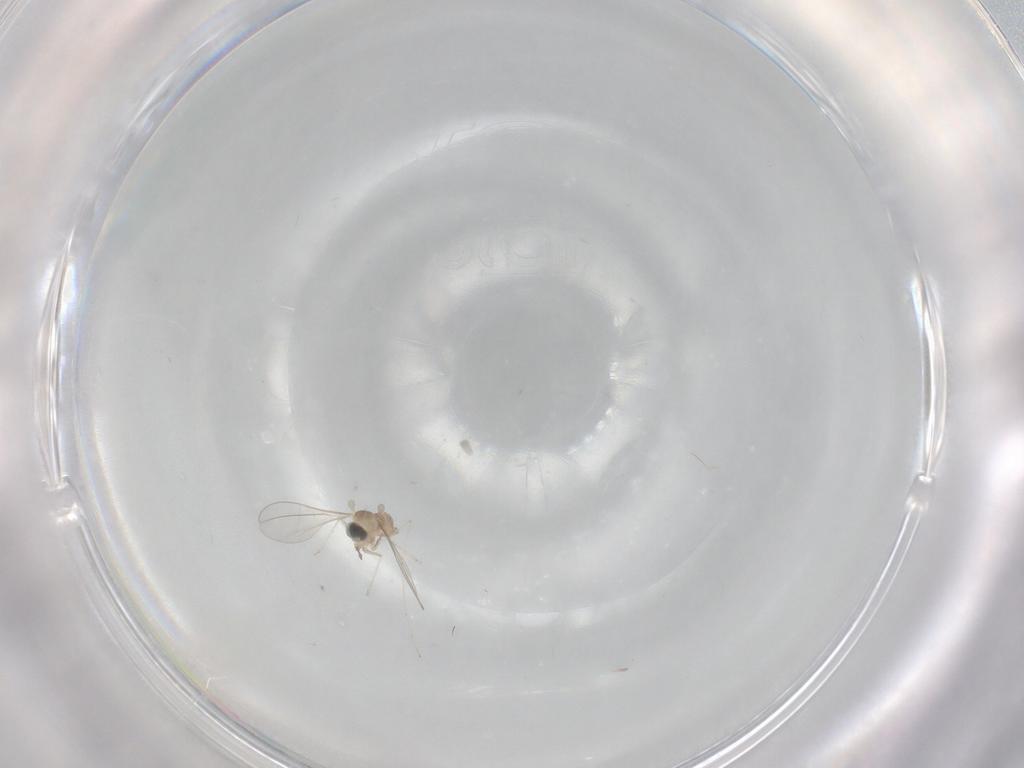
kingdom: Animalia
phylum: Arthropoda
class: Insecta
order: Diptera
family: Cecidomyiidae
